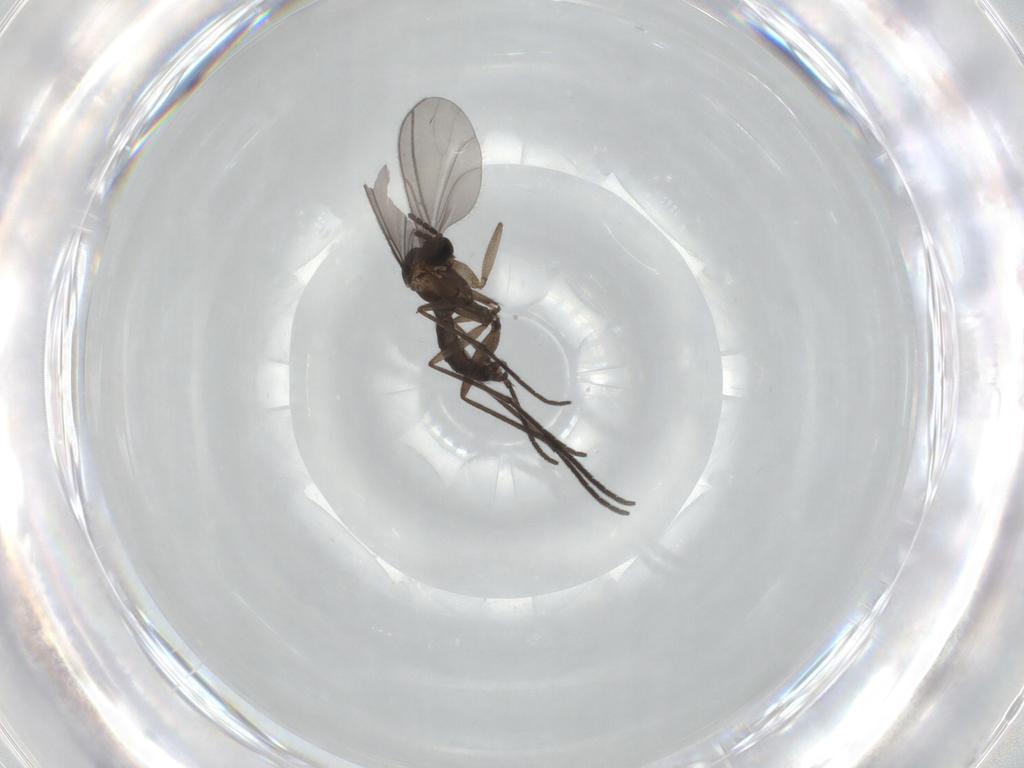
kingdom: Animalia
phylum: Arthropoda
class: Insecta
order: Diptera
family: Sciaridae
